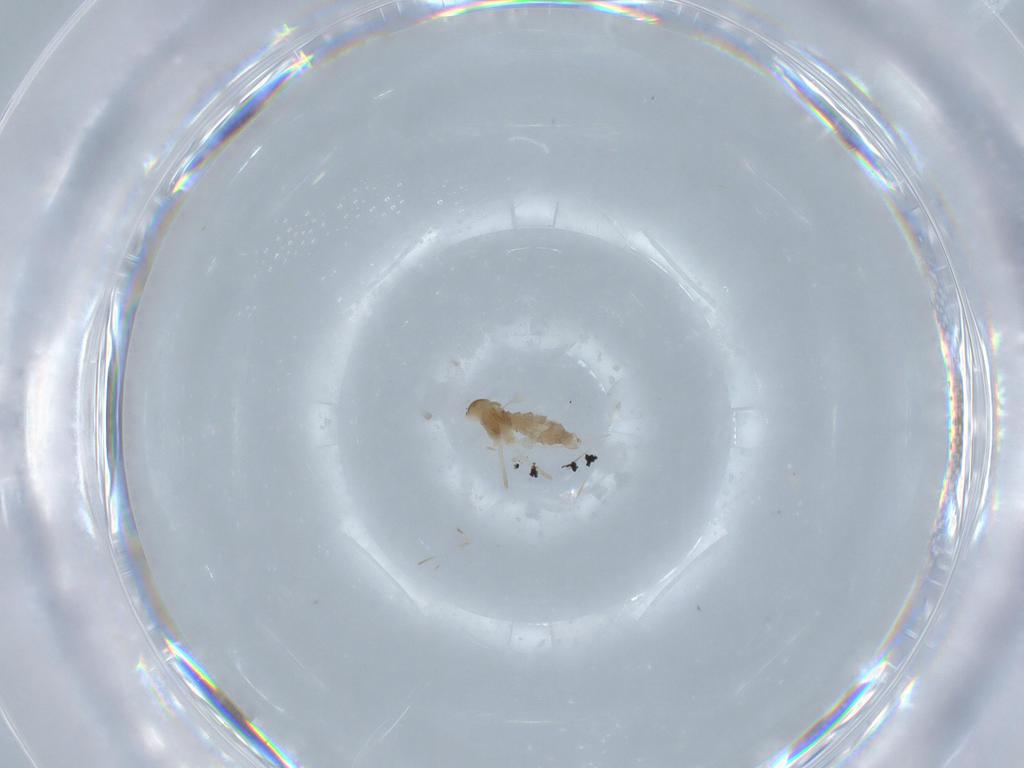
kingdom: Animalia
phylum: Arthropoda
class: Insecta
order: Diptera
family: Cecidomyiidae
